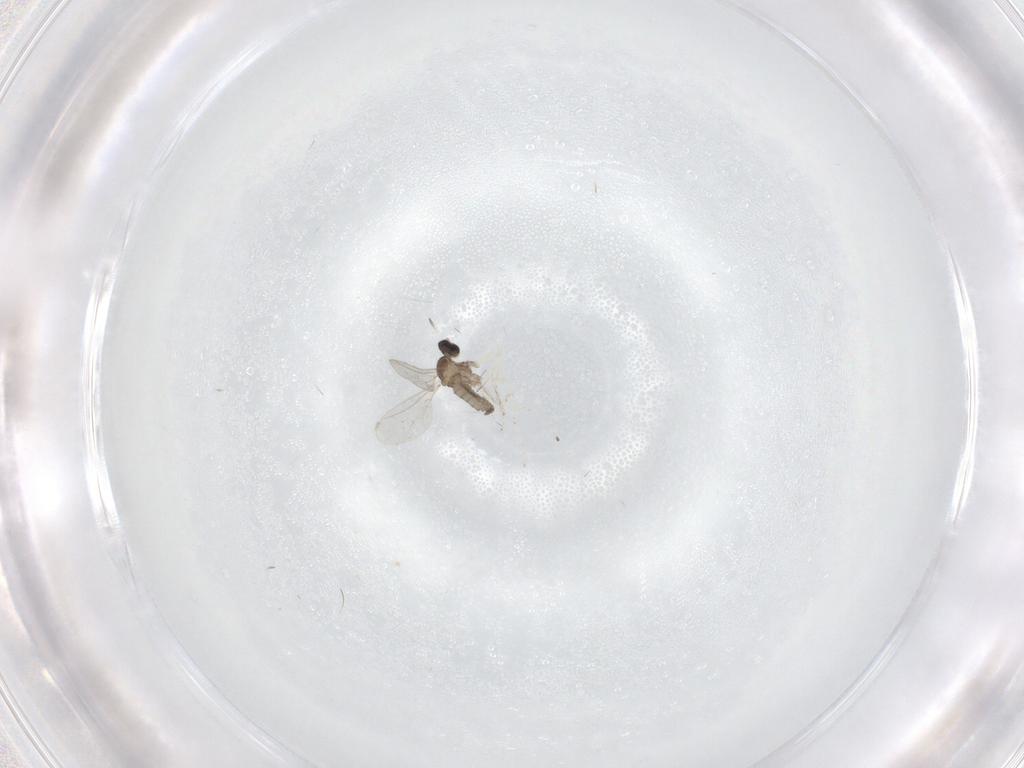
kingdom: Animalia
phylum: Arthropoda
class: Insecta
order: Diptera
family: Cecidomyiidae
